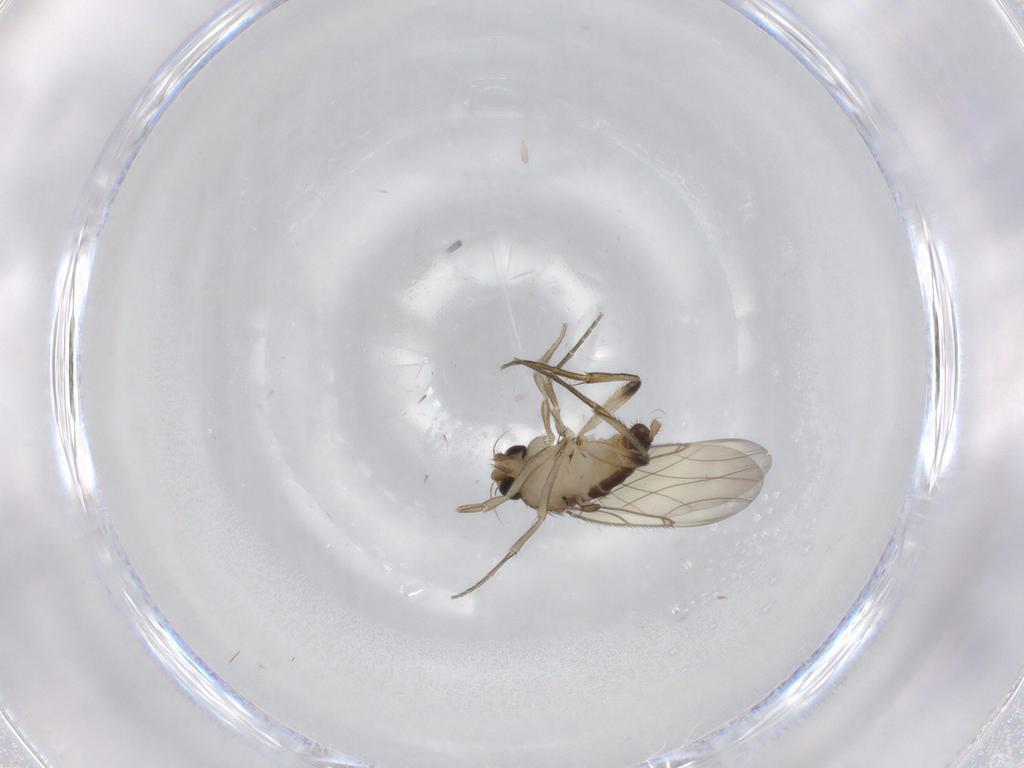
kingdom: Animalia
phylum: Arthropoda
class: Insecta
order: Diptera
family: Phoridae
